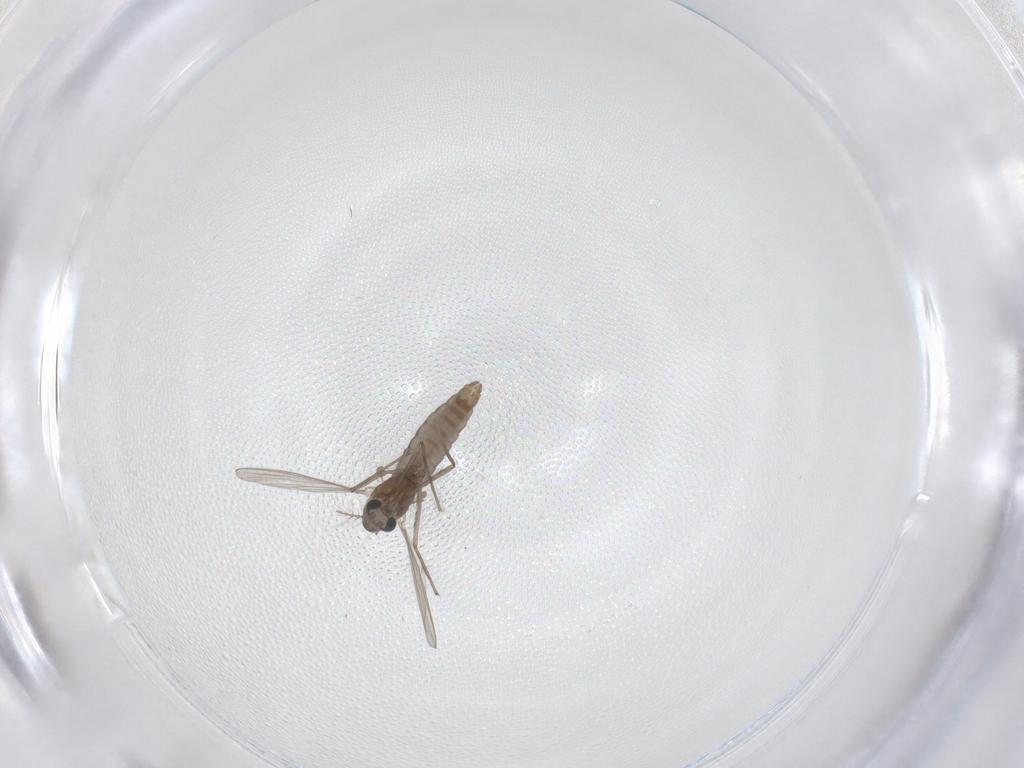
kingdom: Animalia
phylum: Arthropoda
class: Insecta
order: Diptera
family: Chironomidae
